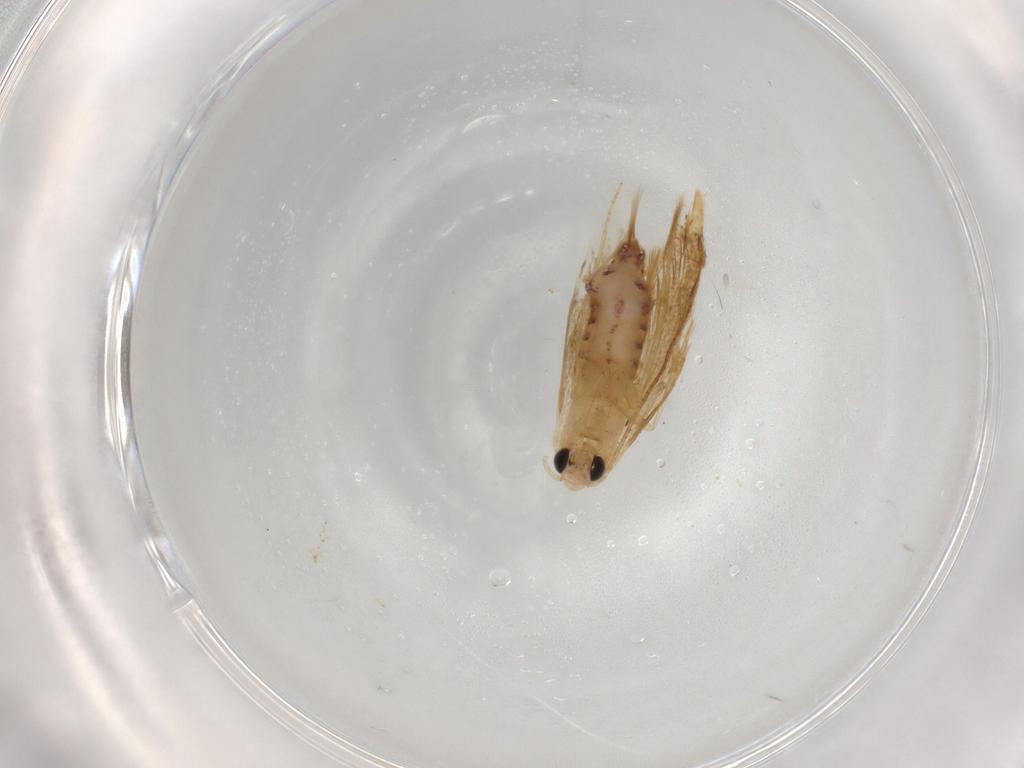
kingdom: Animalia
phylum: Arthropoda
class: Insecta
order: Lepidoptera
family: Bucculatricidae
